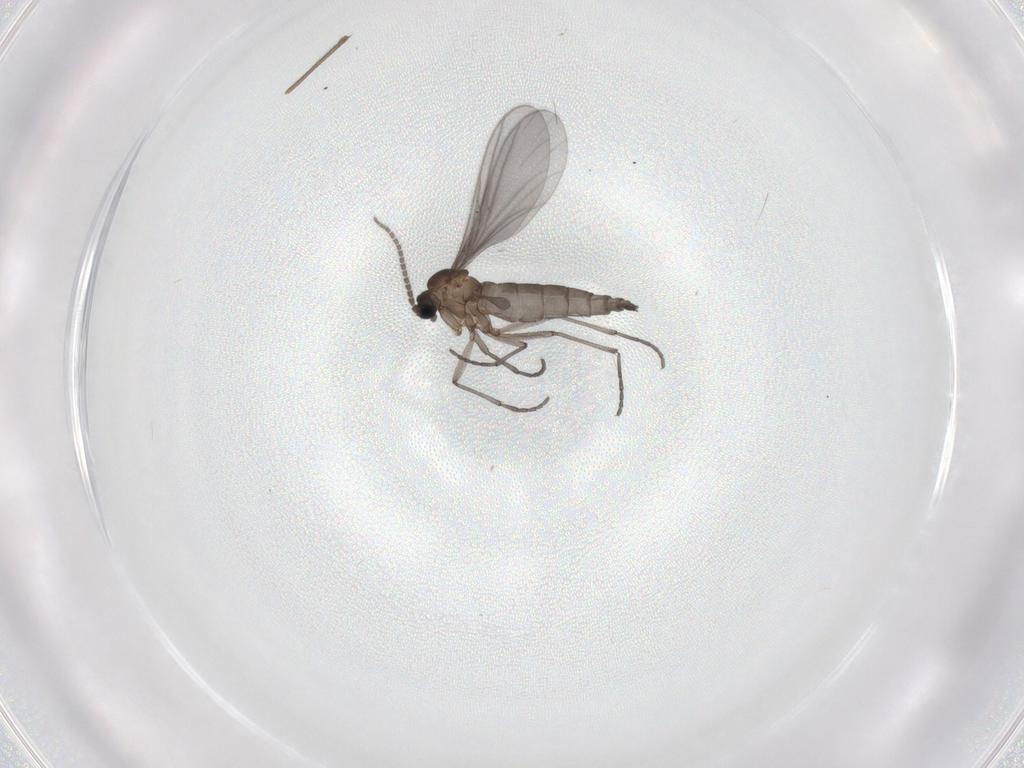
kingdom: Animalia
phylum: Arthropoda
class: Insecta
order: Diptera
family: Sciaridae
